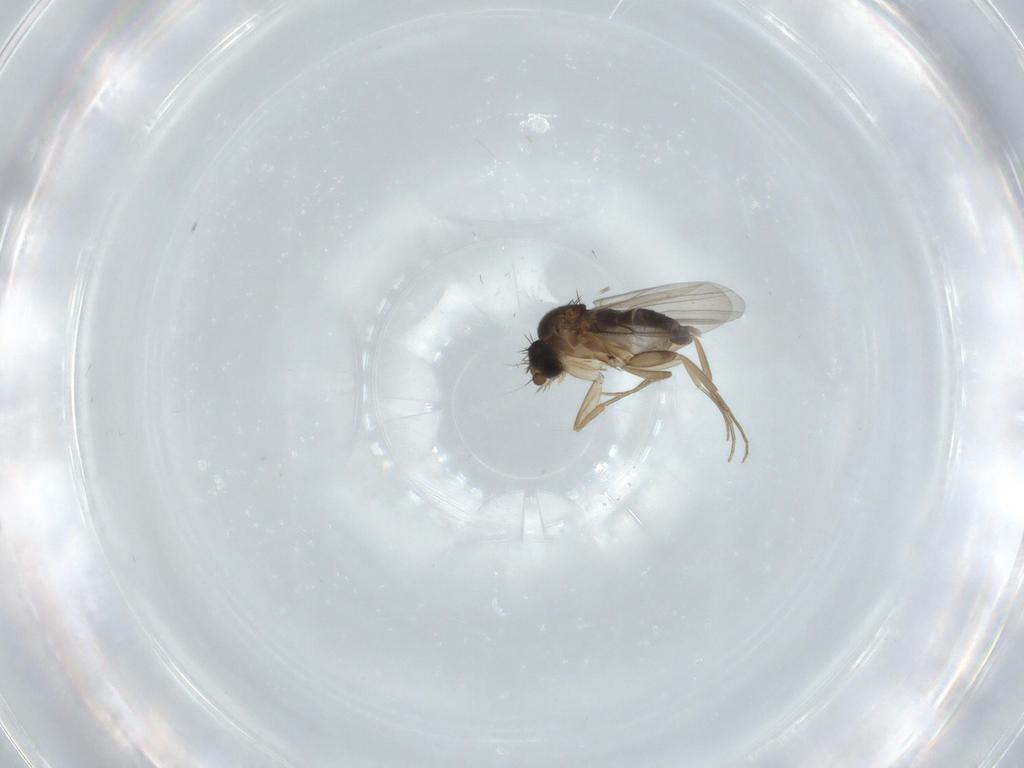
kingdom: Animalia
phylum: Arthropoda
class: Insecta
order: Diptera
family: Phoridae
